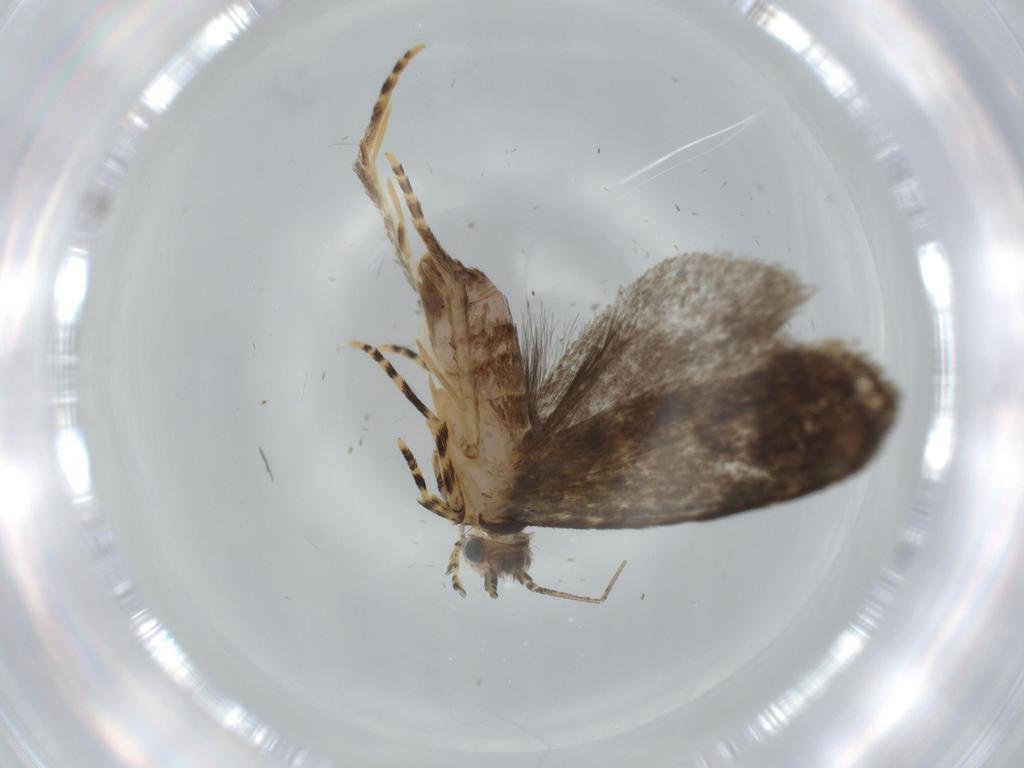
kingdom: Animalia
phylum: Arthropoda
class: Insecta
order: Lepidoptera
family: Tineidae
